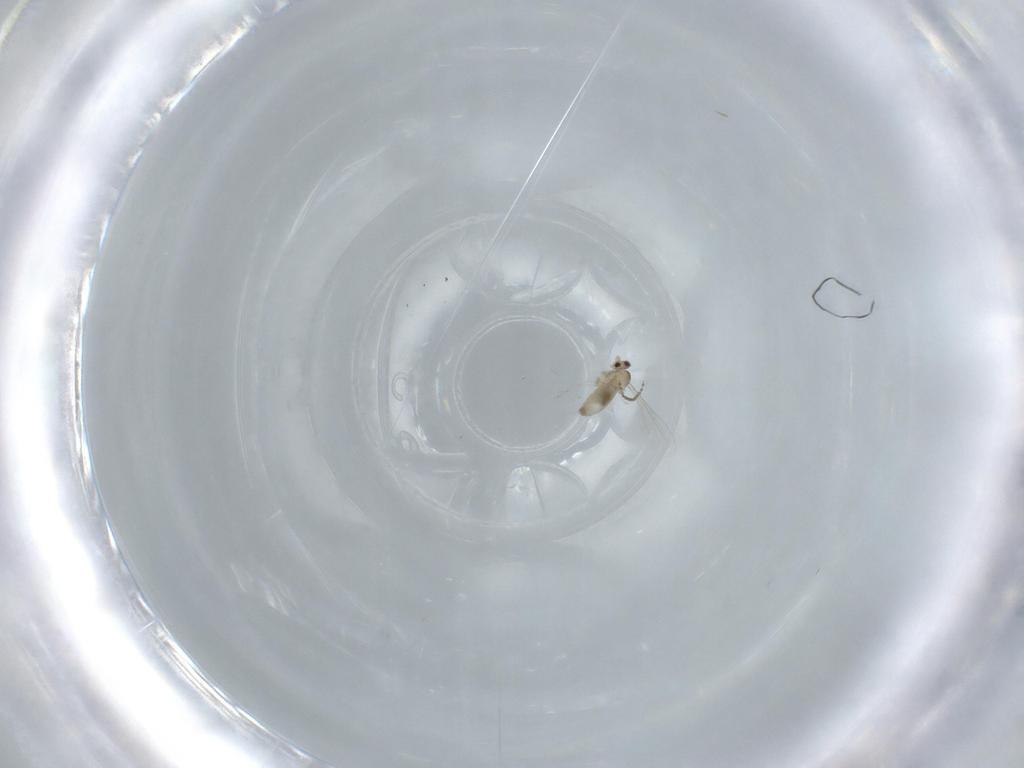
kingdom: Animalia
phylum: Arthropoda
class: Insecta
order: Diptera
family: Cecidomyiidae
